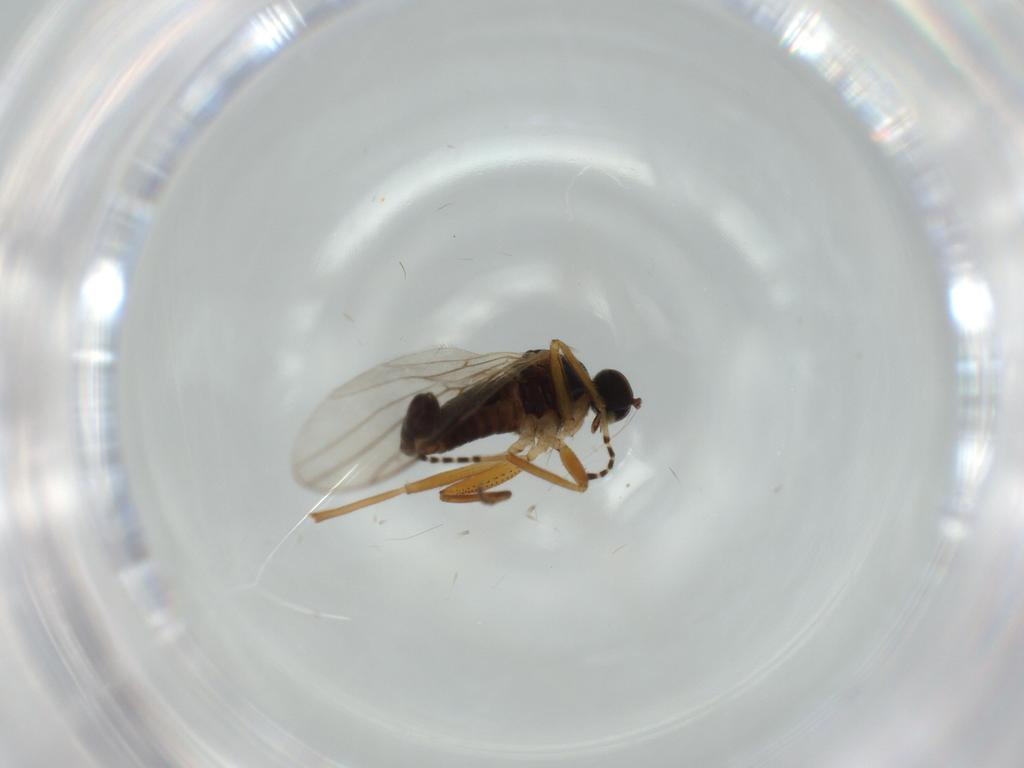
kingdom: Animalia
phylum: Arthropoda
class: Insecta
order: Diptera
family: Hybotidae
